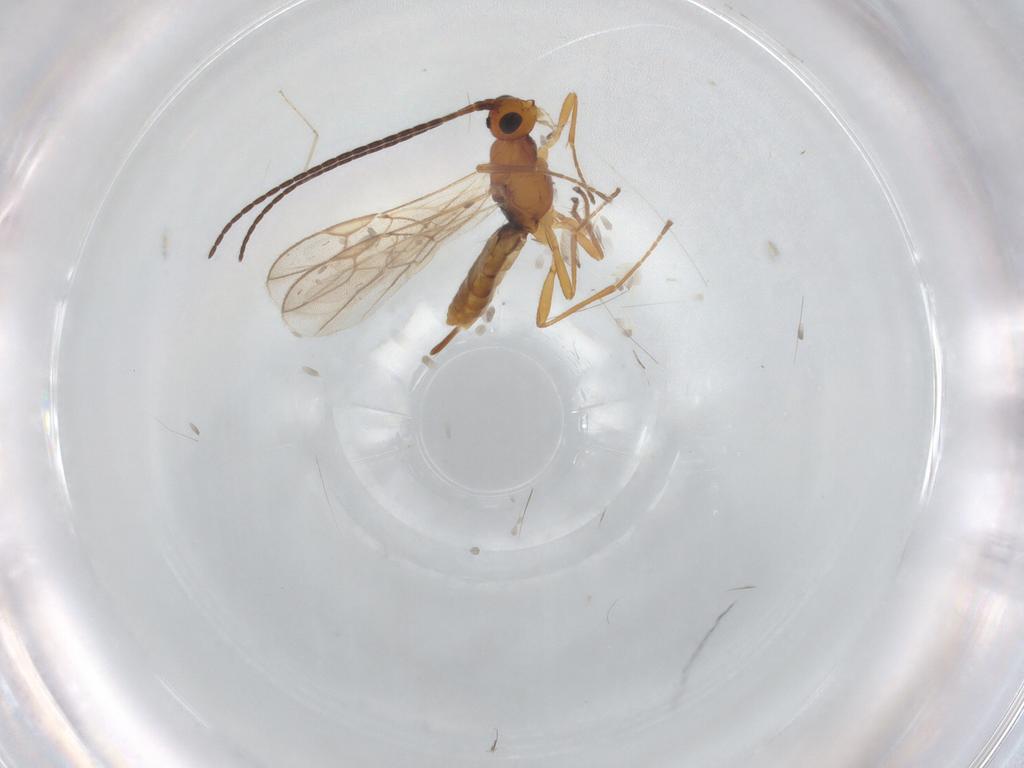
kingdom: Animalia
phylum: Arthropoda
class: Insecta
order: Hymenoptera
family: Braconidae
